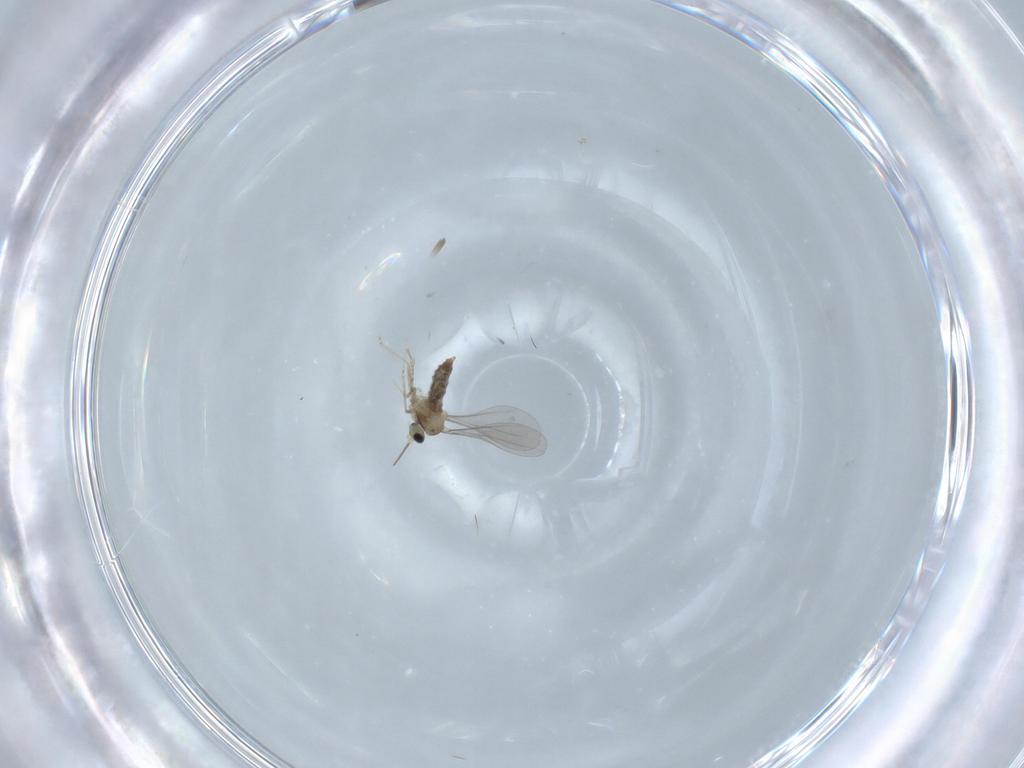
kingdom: Animalia
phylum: Arthropoda
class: Insecta
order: Diptera
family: Cecidomyiidae
